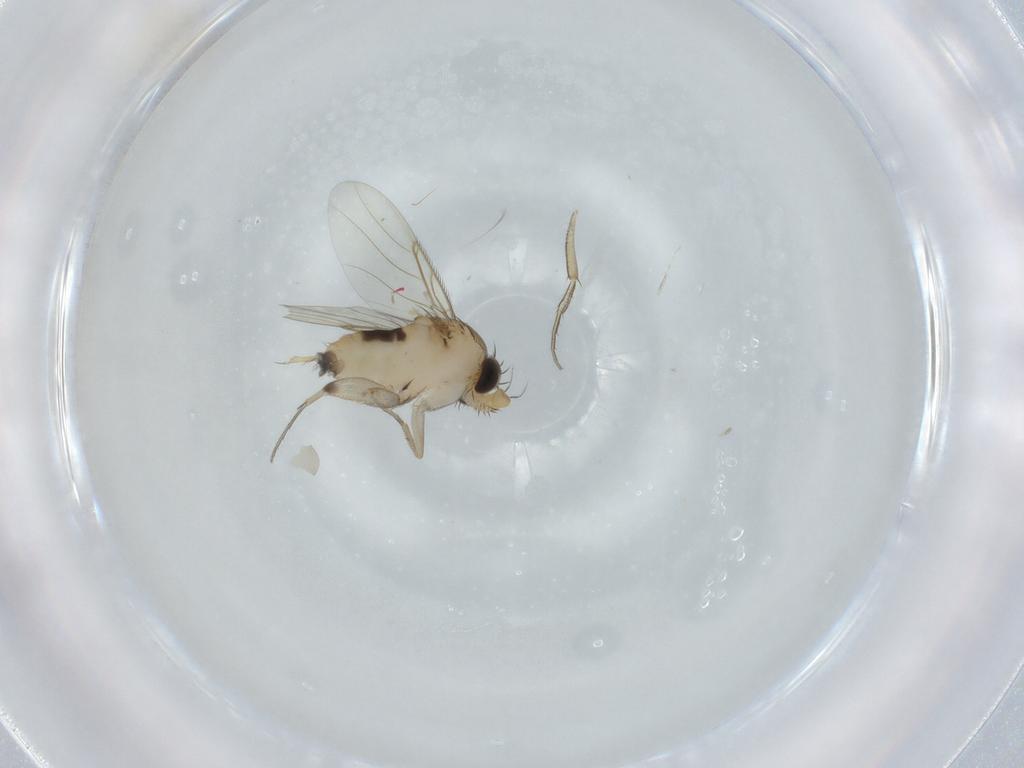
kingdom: Animalia
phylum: Arthropoda
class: Insecta
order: Diptera
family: Phoridae
